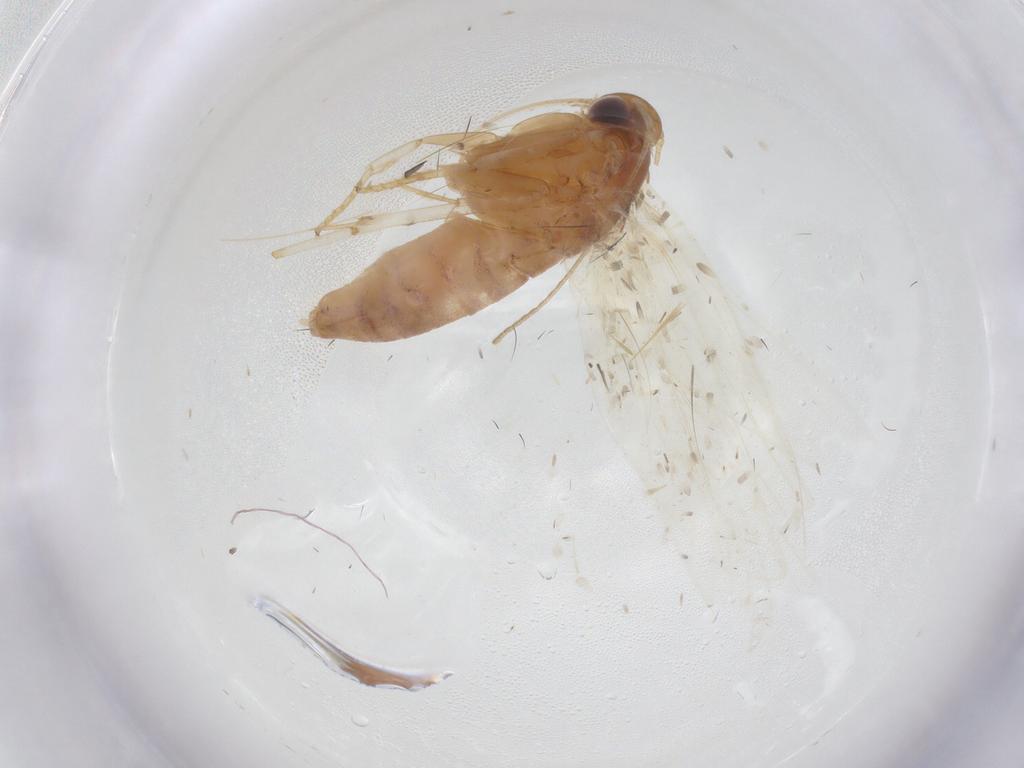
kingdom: Animalia
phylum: Arthropoda
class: Insecta
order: Lepidoptera
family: Oecophoridae
